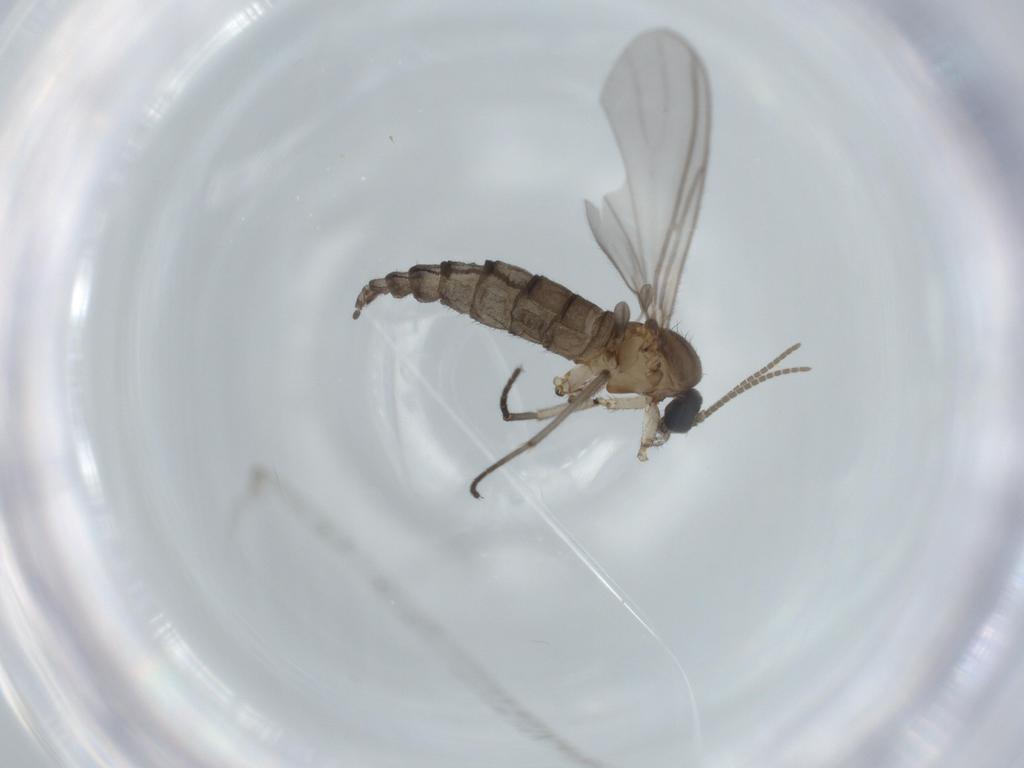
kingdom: Animalia
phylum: Arthropoda
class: Insecta
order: Diptera
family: Sciaridae
